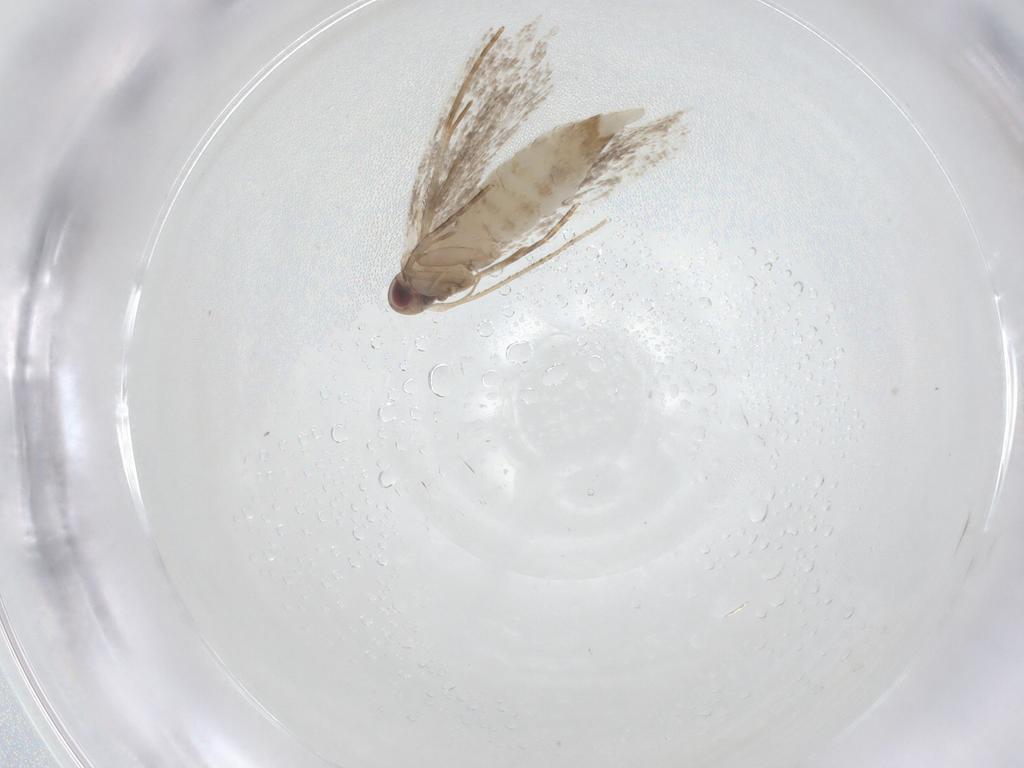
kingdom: Animalia
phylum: Arthropoda
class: Insecta
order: Lepidoptera
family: Gelechiidae
